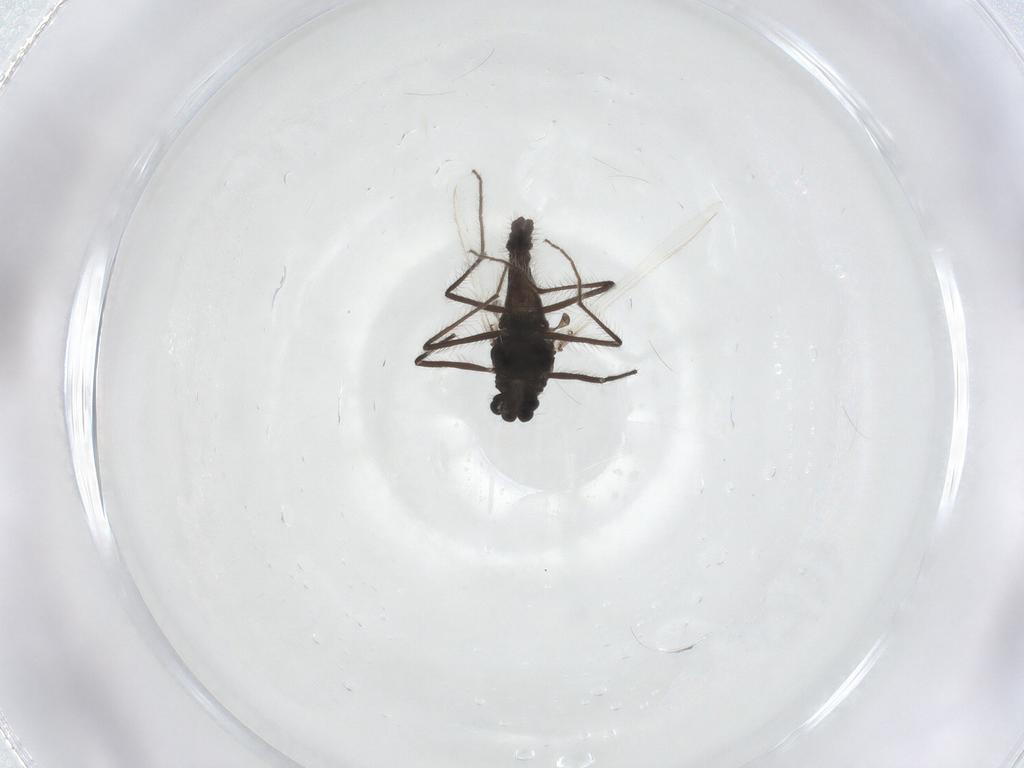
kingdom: Animalia
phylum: Arthropoda
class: Insecta
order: Diptera
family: Chironomidae
